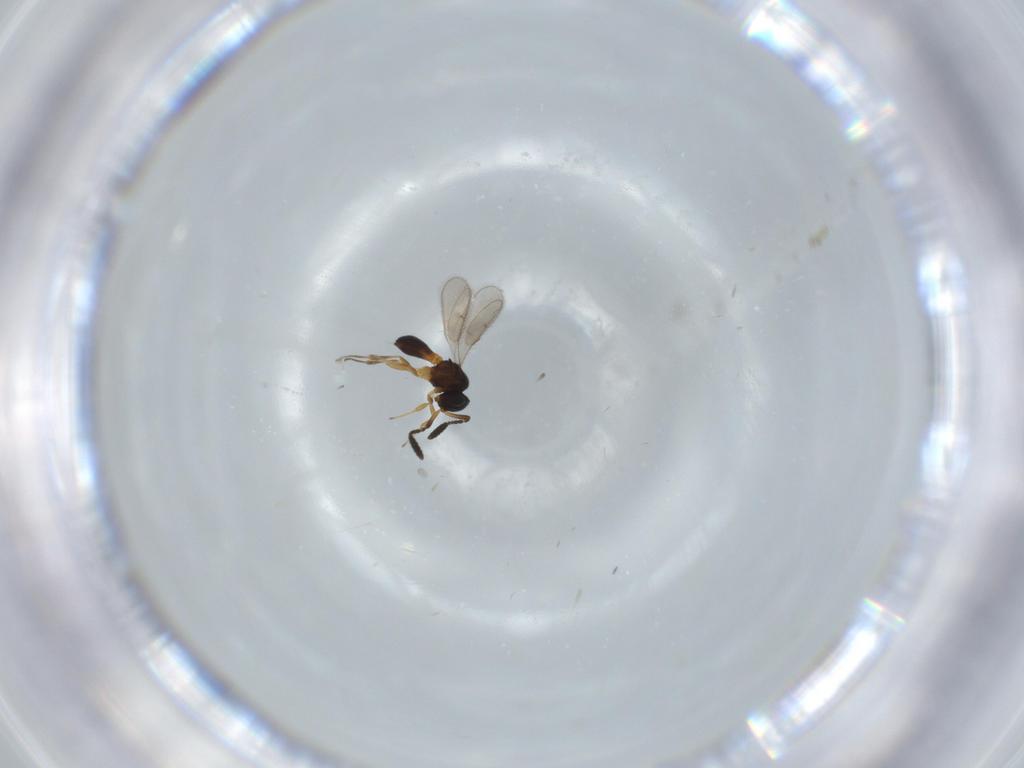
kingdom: Animalia
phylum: Arthropoda
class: Insecta
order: Hymenoptera
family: Scelionidae
